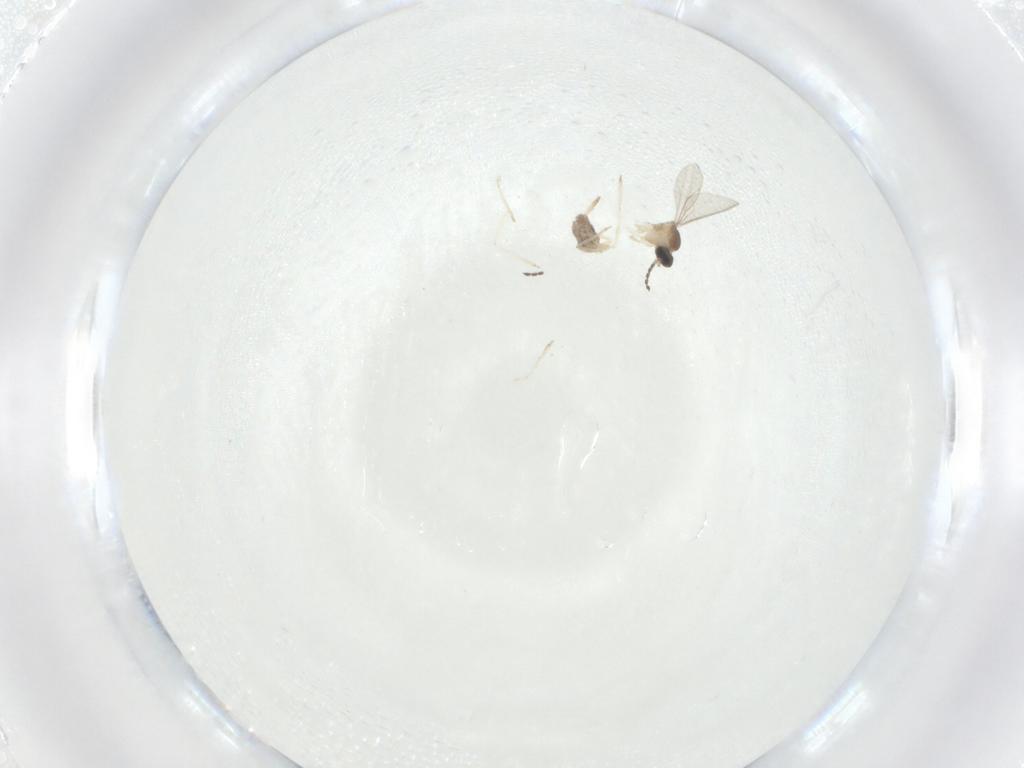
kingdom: Animalia
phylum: Arthropoda
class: Insecta
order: Diptera
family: Cecidomyiidae
